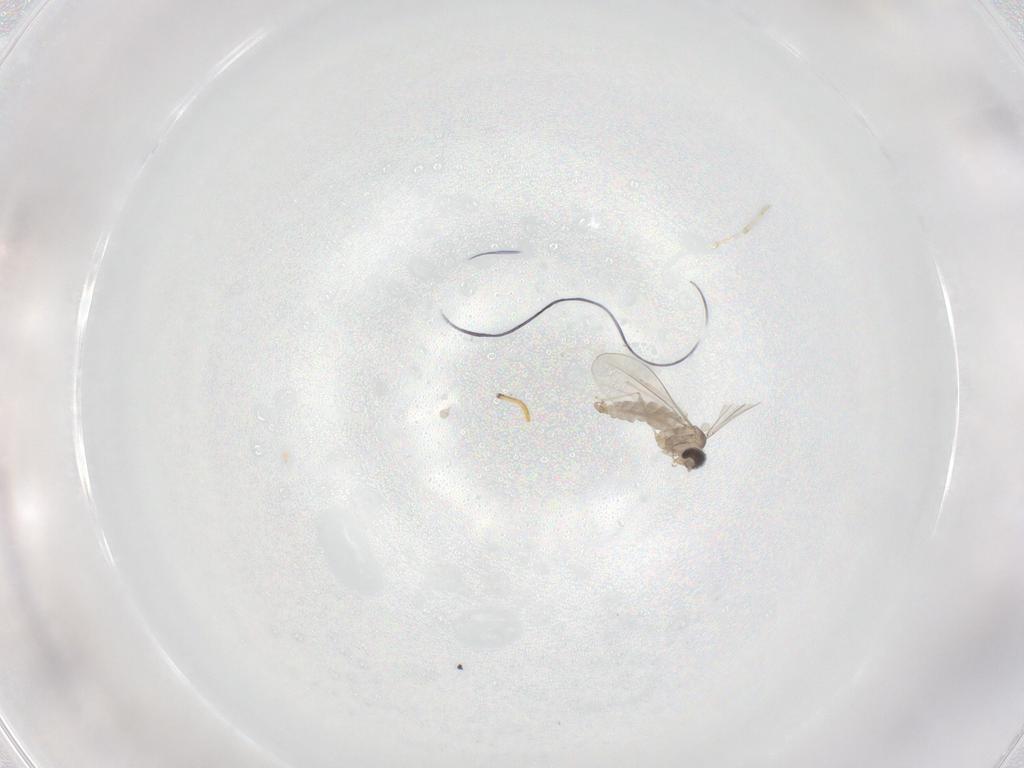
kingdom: Animalia
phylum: Arthropoda
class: Insecta
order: Diptera
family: Cecidomyiidae
